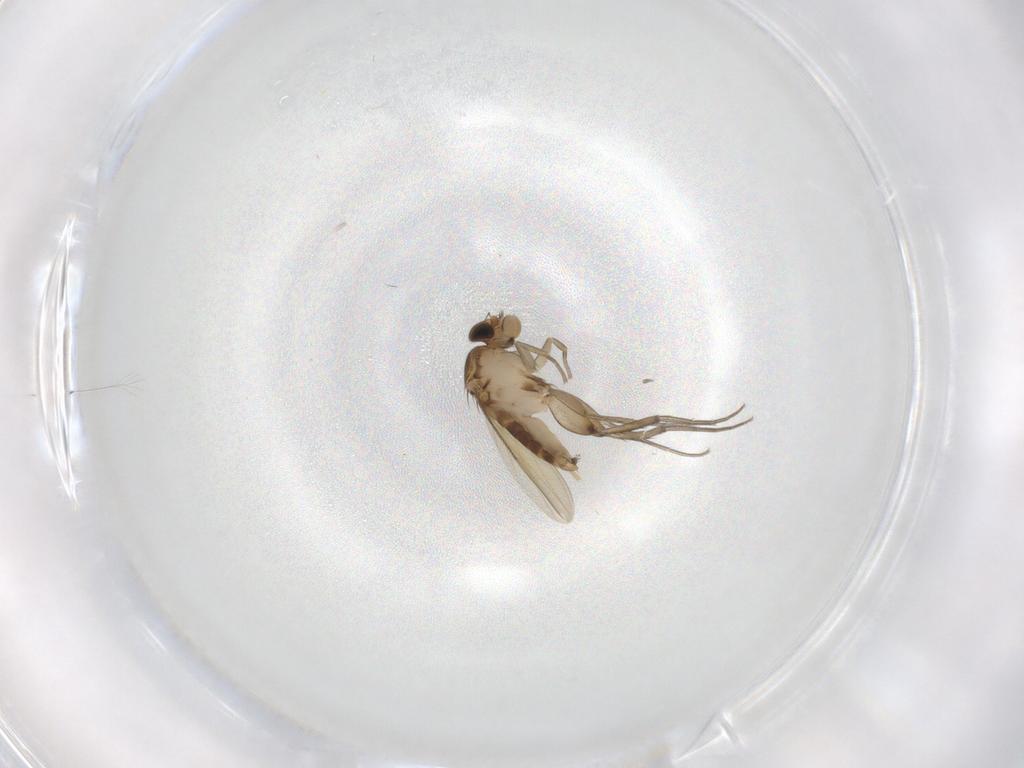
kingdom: Animalia
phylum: Arthropoda
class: Insecta
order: Diptera
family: Phoridae
